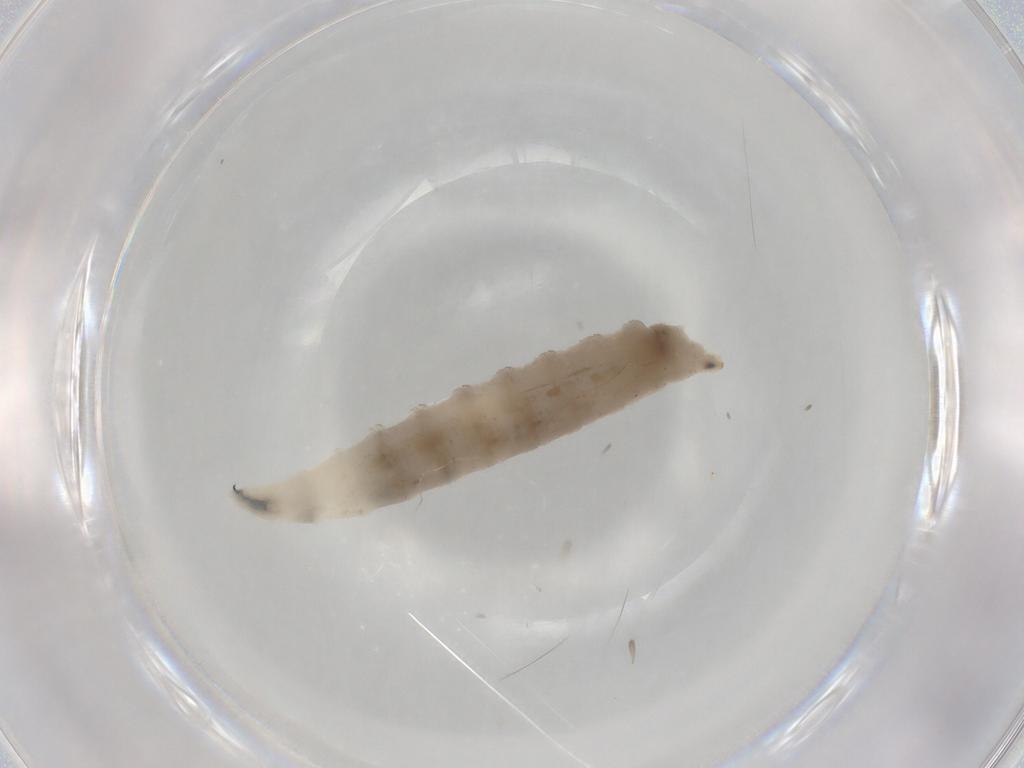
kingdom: Animalia
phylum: Arthropoda
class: Insecta
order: Diptera
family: Drosophilidae
